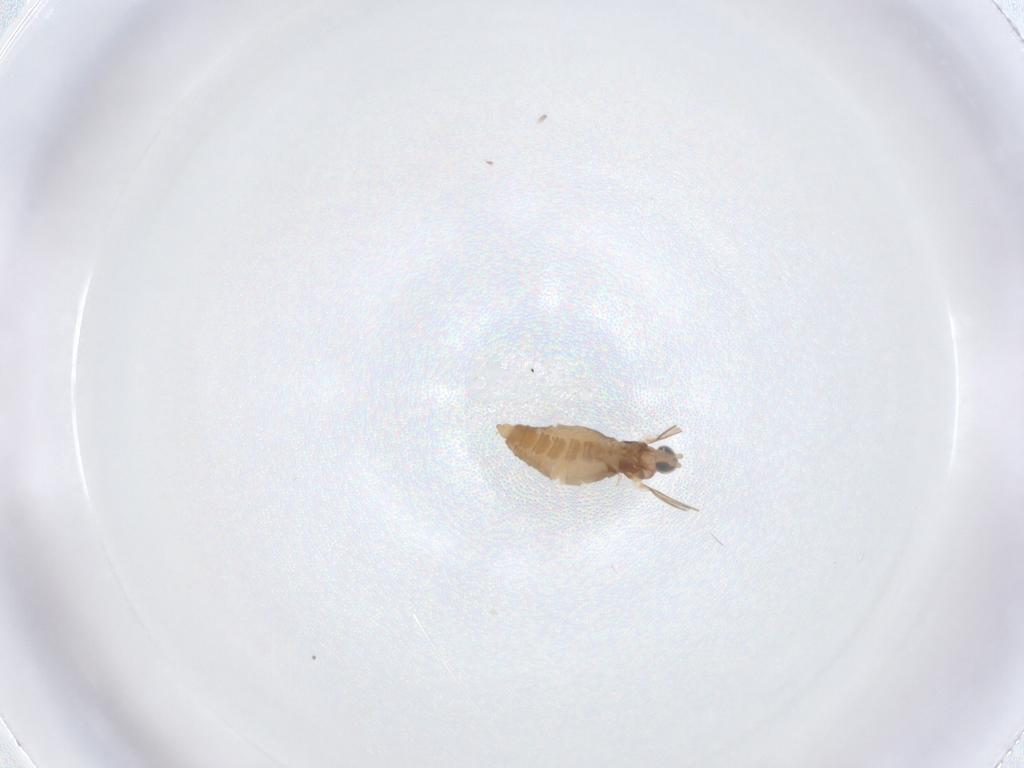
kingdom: Animalia
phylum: Arthropoda
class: Insecta
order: Diptera
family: Cecidomyiidae
